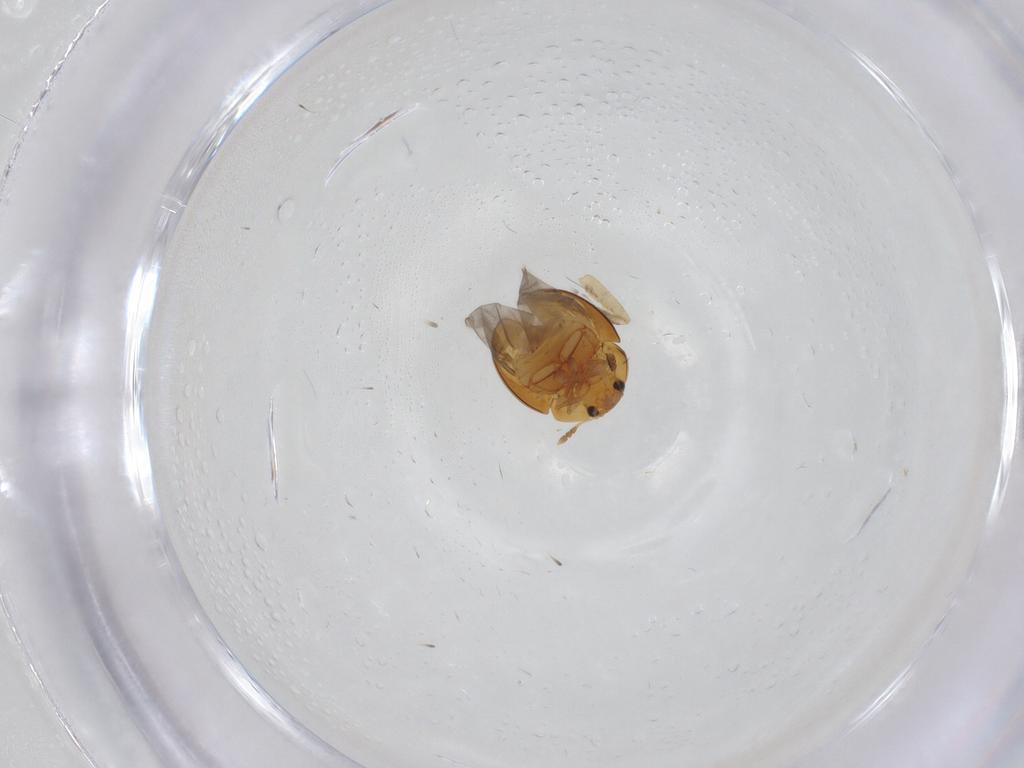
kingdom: Animalia
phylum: Arthropoda
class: Insecta
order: Coleoptera
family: Phalacridae
